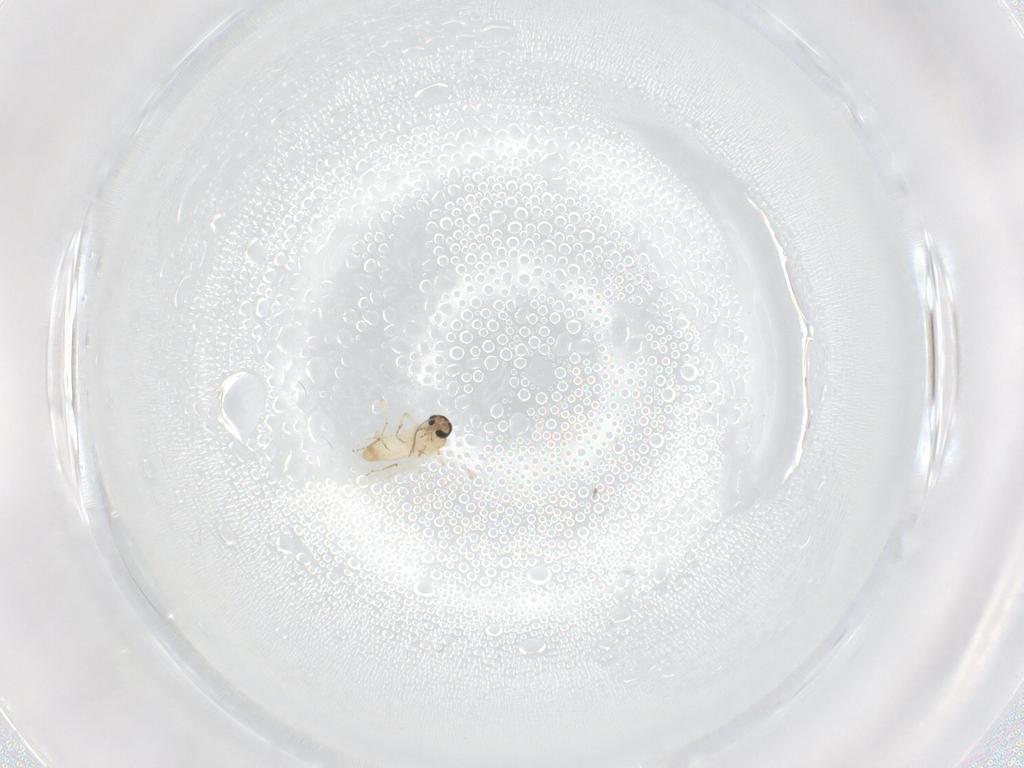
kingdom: Animalia
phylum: Arthropoda
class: Insecta
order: Diptera
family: Ceratopogonidae
